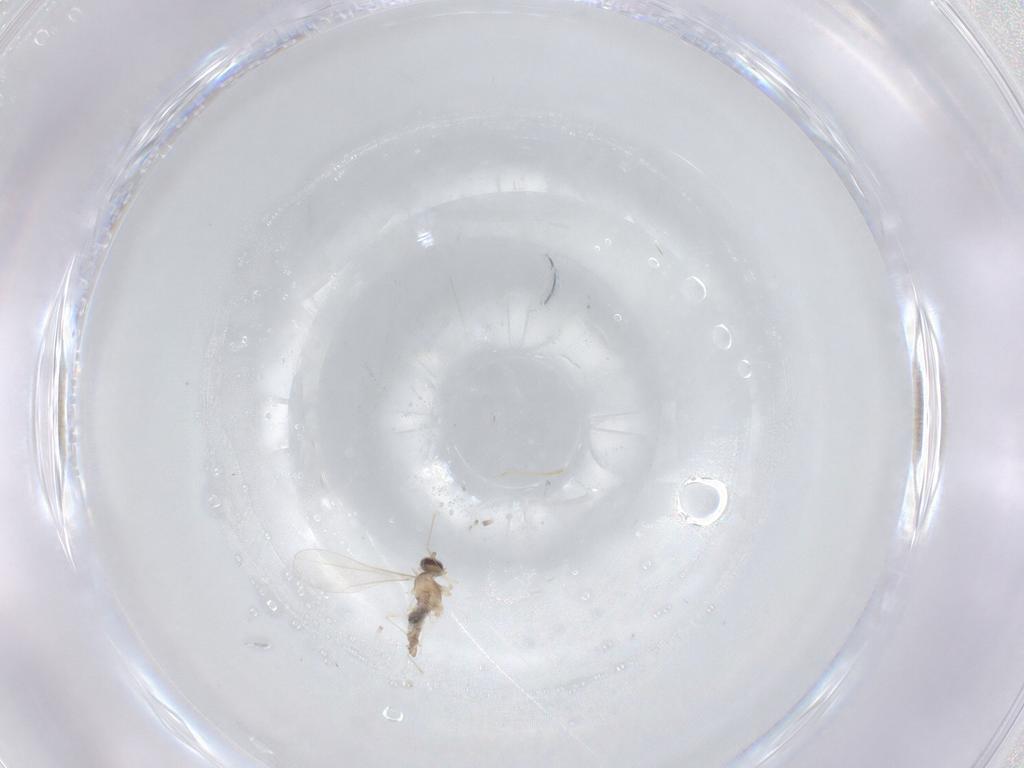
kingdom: Animalia
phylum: Arthropoda
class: Insecta
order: Diptera
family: Cecidomyiidae
